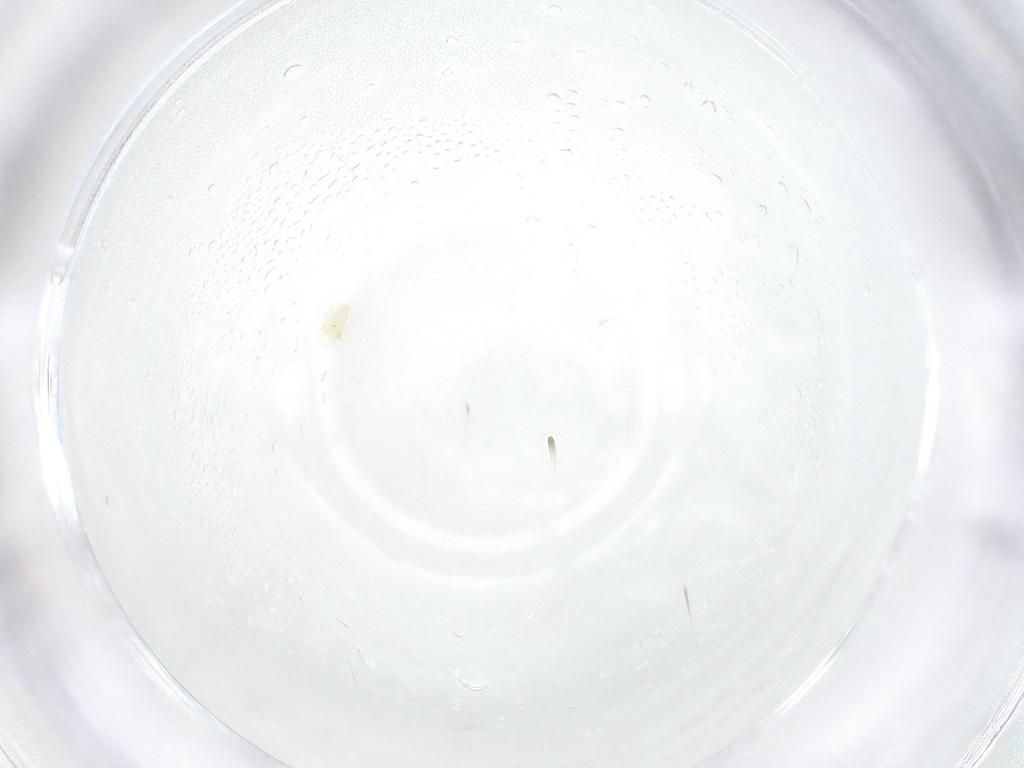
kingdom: Animalia
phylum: Arthropoda
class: Arachnida
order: Trombidiformes
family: Eupodidae
